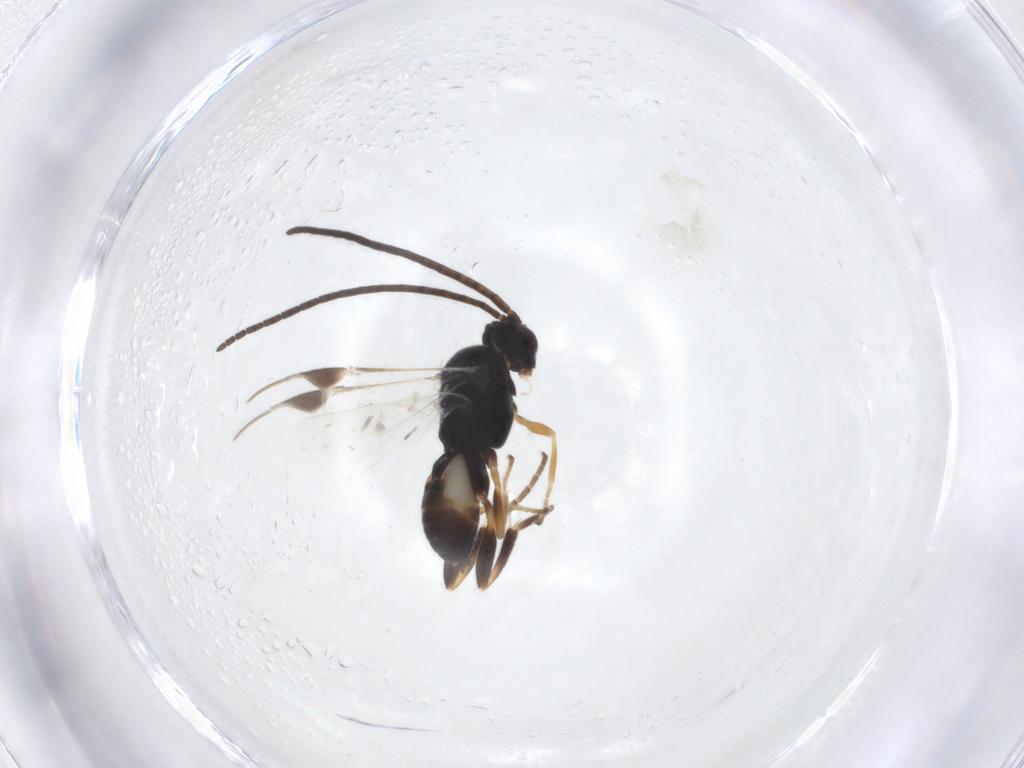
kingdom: Animalia
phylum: Arthropoda
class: Insecta
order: Hymenoptera
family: Braconidae
